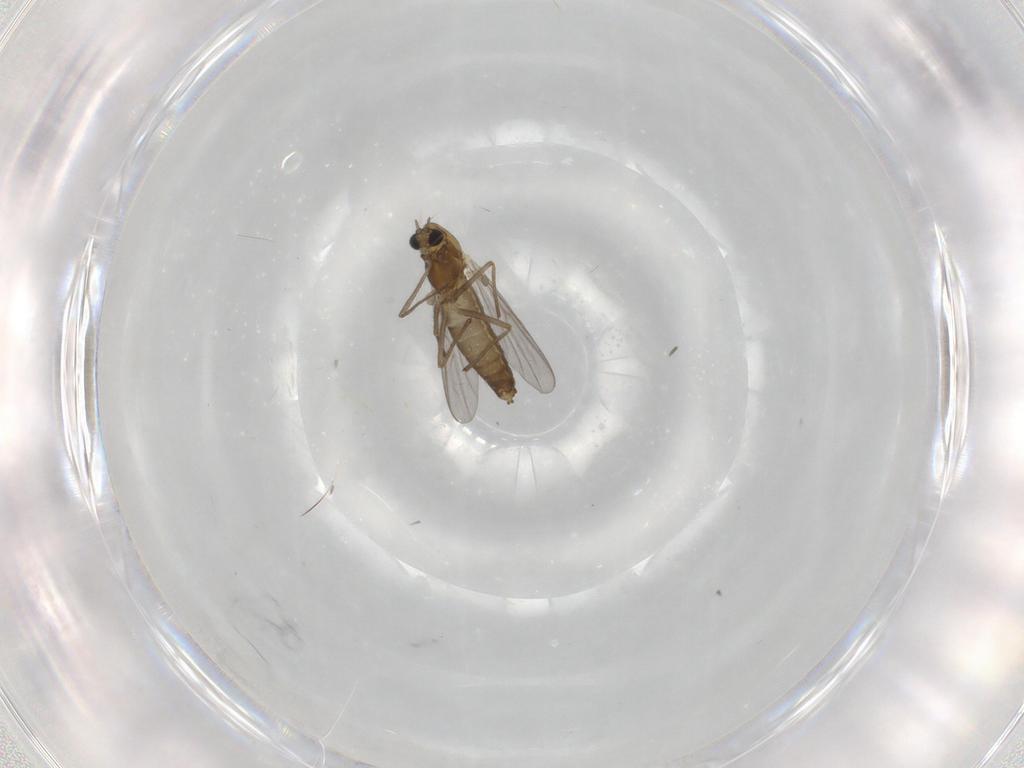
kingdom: Animalia
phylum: Arthropoda
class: Insecta
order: Diptera
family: Chironomidae
